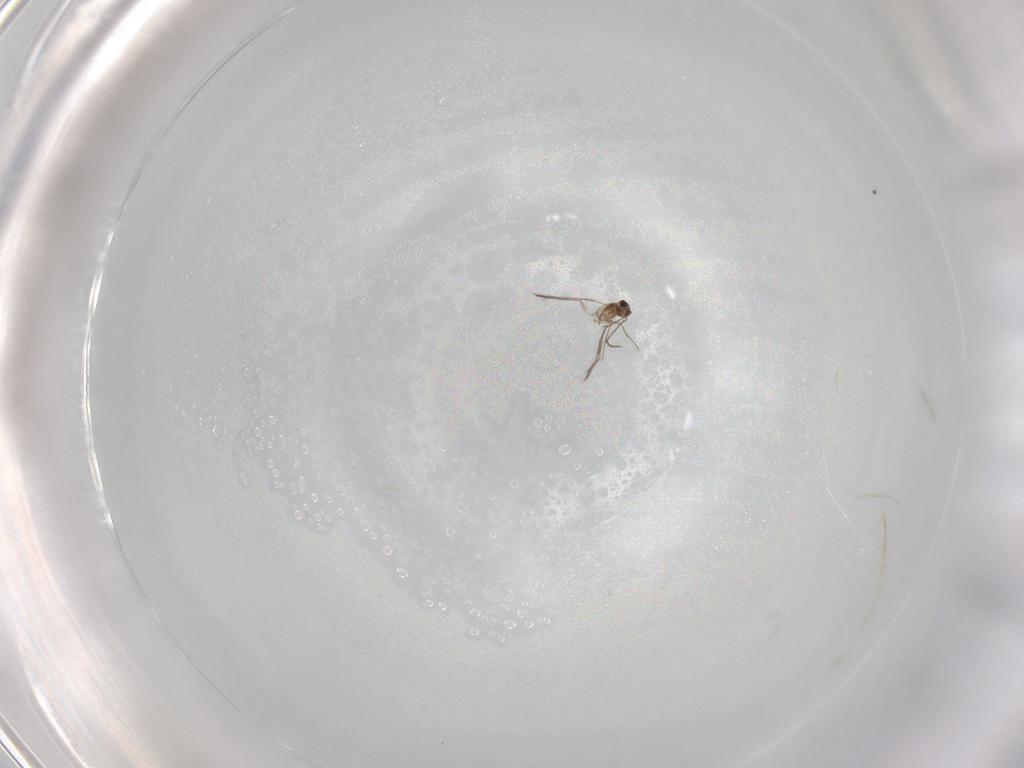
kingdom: Animalia
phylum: Arthropoda
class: Insecta
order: Hymenoptera
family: Mymaridae
